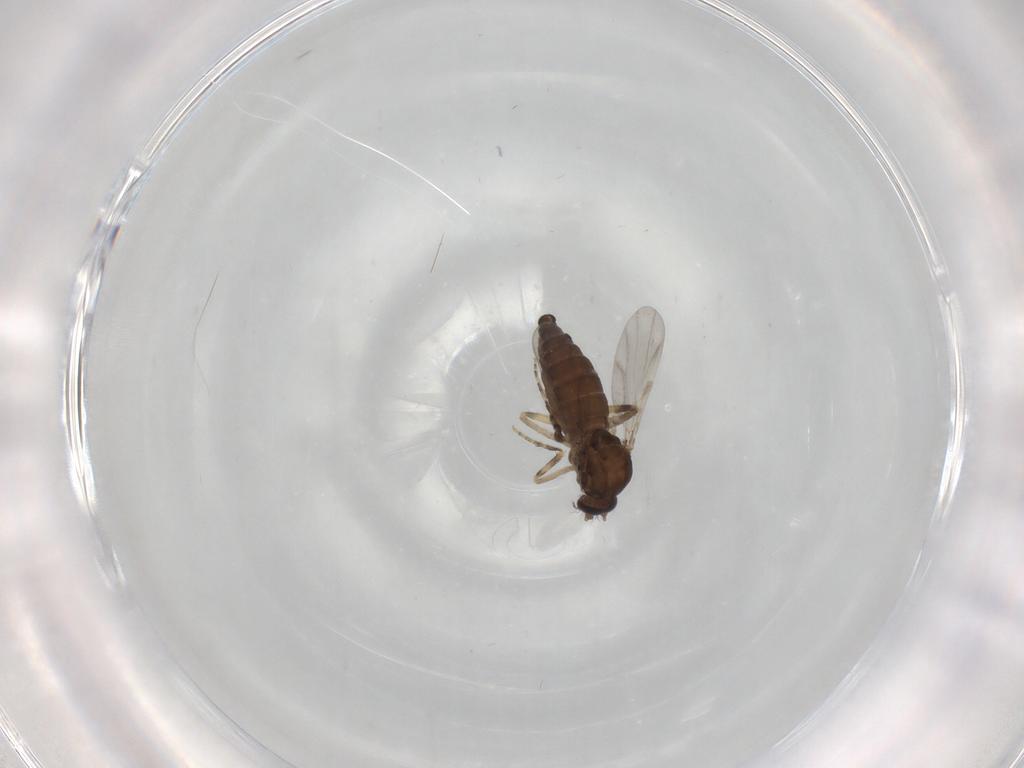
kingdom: Animalia
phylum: Arthropoda
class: Insecta
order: Diptera
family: Ceratopogonidae
